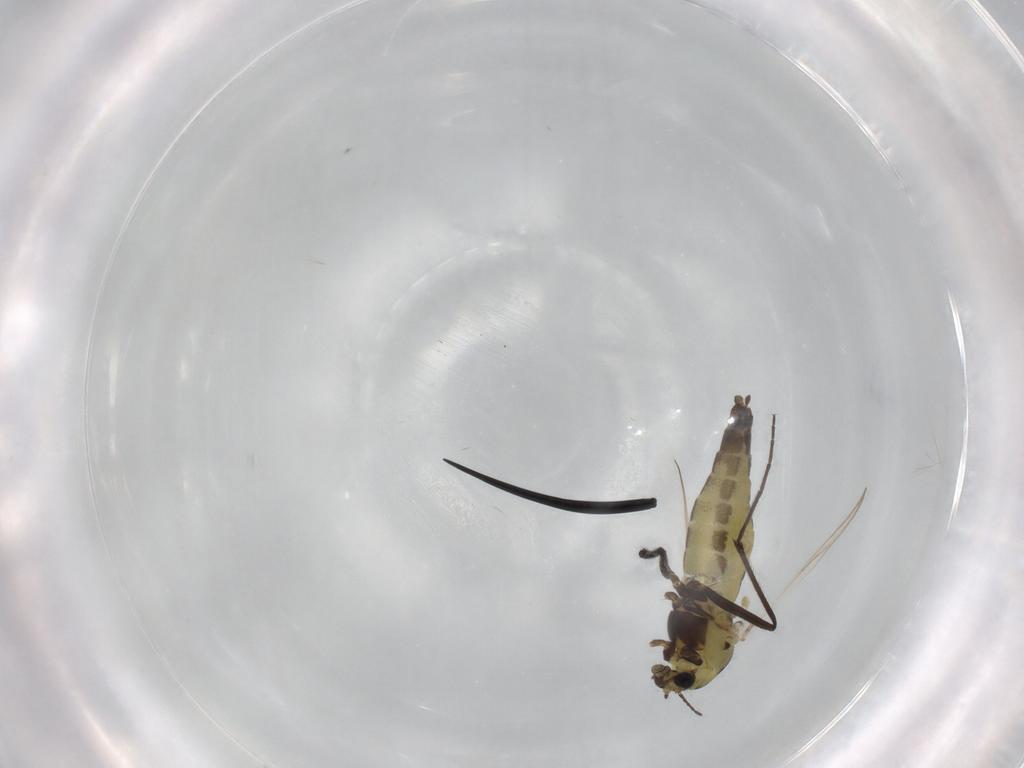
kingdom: Animalia
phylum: Arthropoda
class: Insecta
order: Diptera
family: Chironomidae
